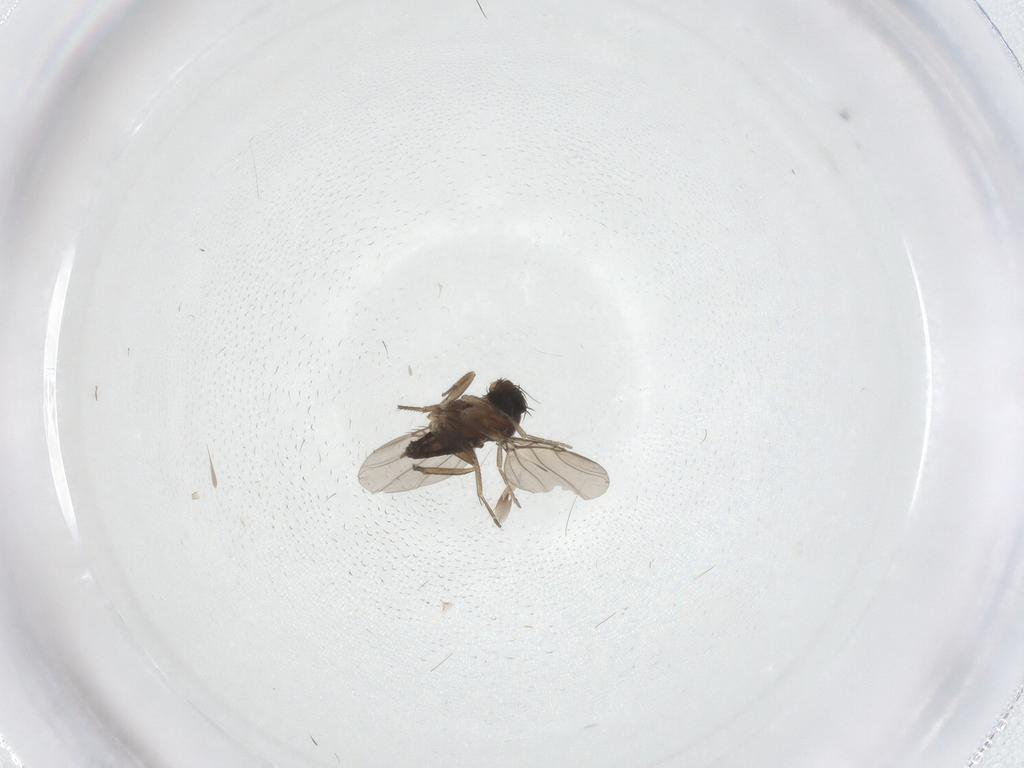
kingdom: Animalia
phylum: Arthropoda
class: Insecta
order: Diptera
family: Phoridae
